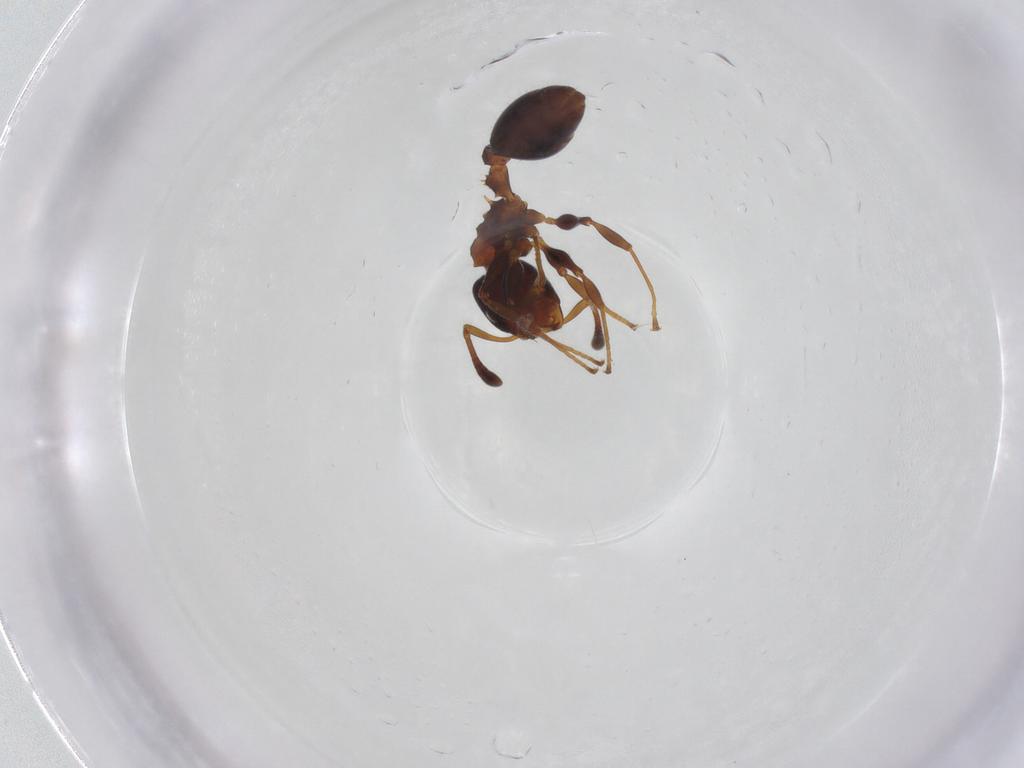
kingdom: Animalia
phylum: Arthropoda
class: Insecta
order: Hymenoptera
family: Formicidae
